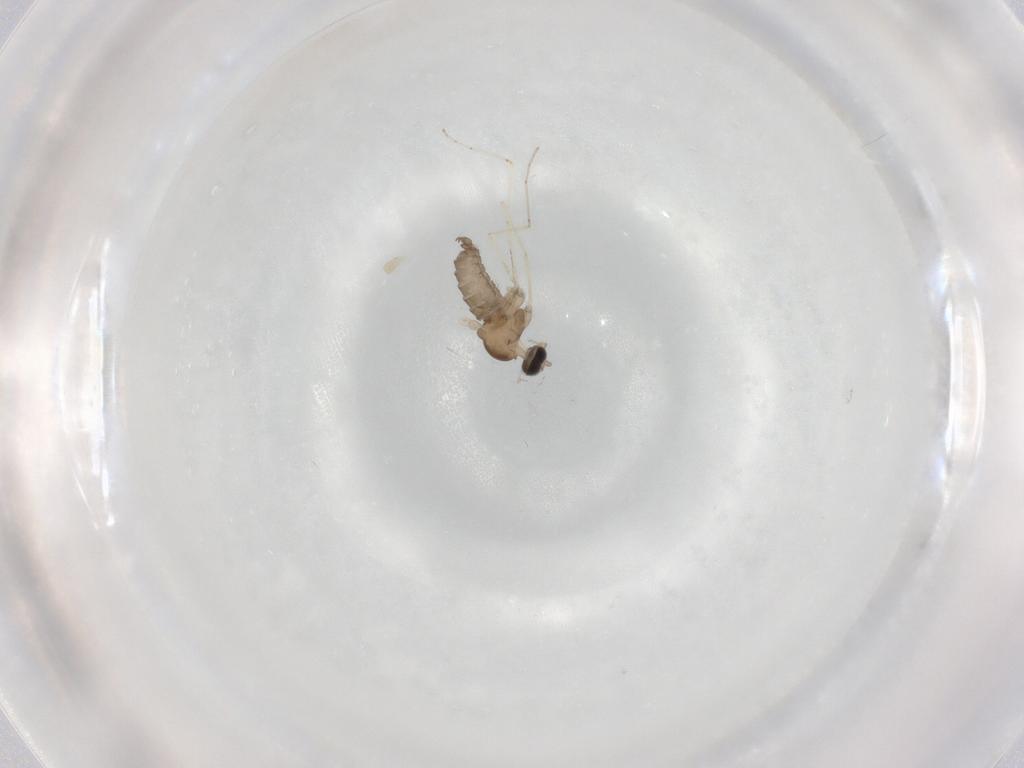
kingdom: Animalia
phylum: Arthropoda
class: Insecta
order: Diptera
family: Cecidomyiidae
